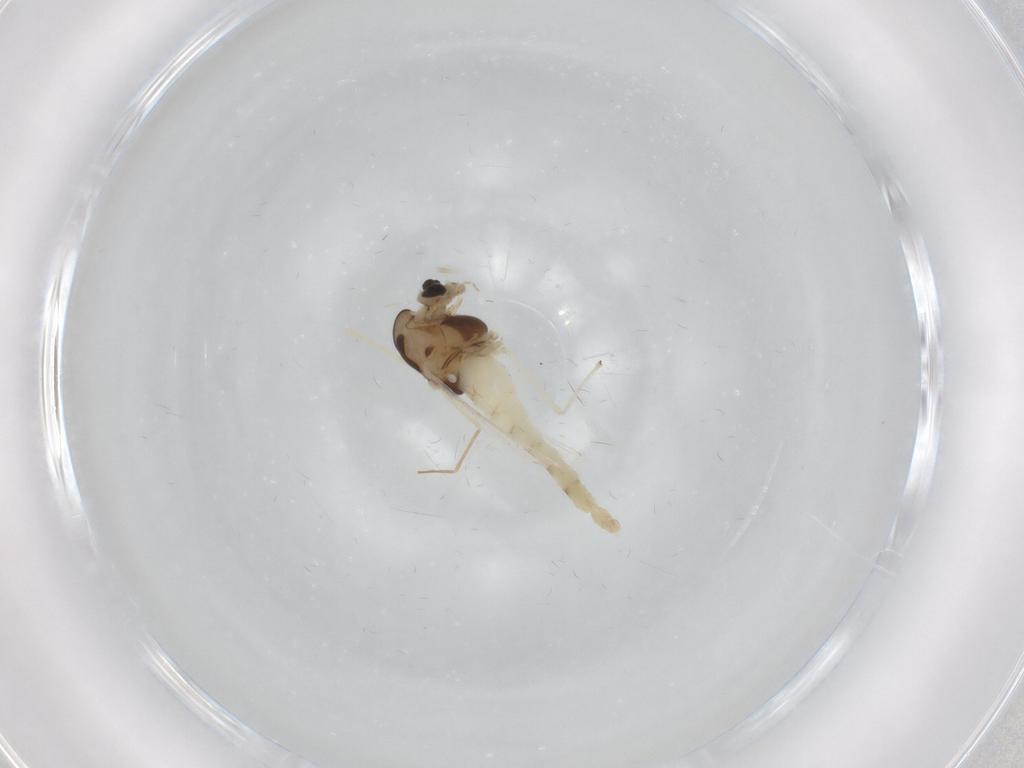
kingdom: Animalia
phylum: Arthropoda
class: Insecta
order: Diptera
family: Chironomidae
